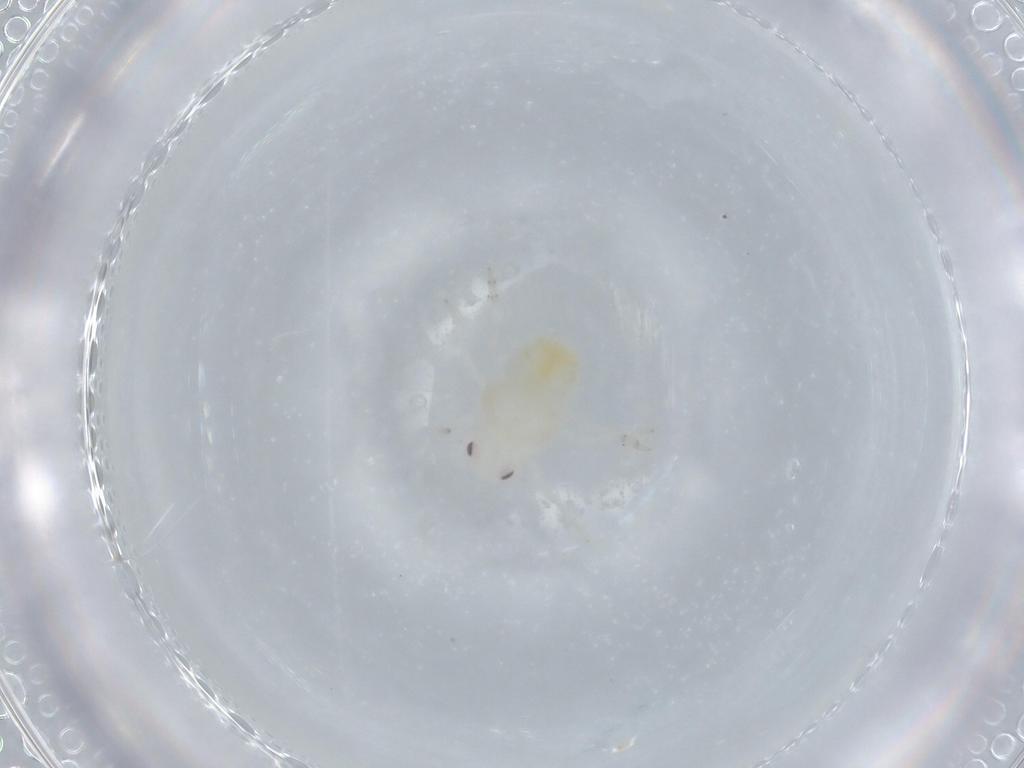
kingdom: Animalia
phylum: Arthropoda
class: Insecta
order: Hemiptera
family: Flatidae
